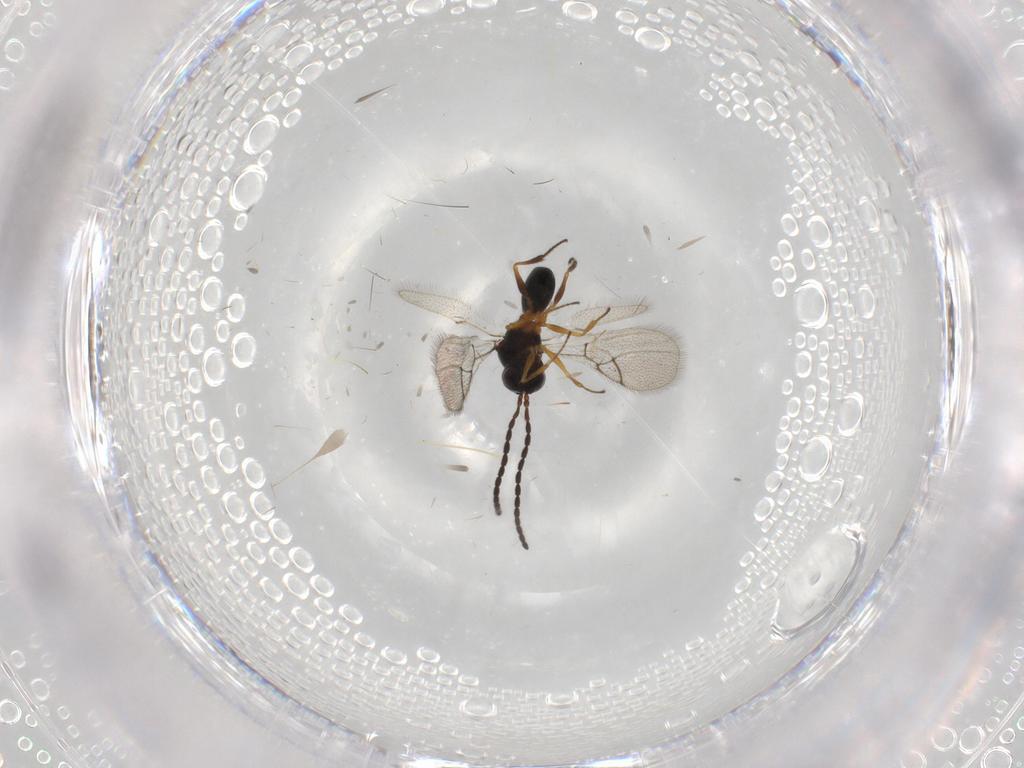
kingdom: Animalia
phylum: Arthropoda
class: Insecta
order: Hymenoptera
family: Figitidae
